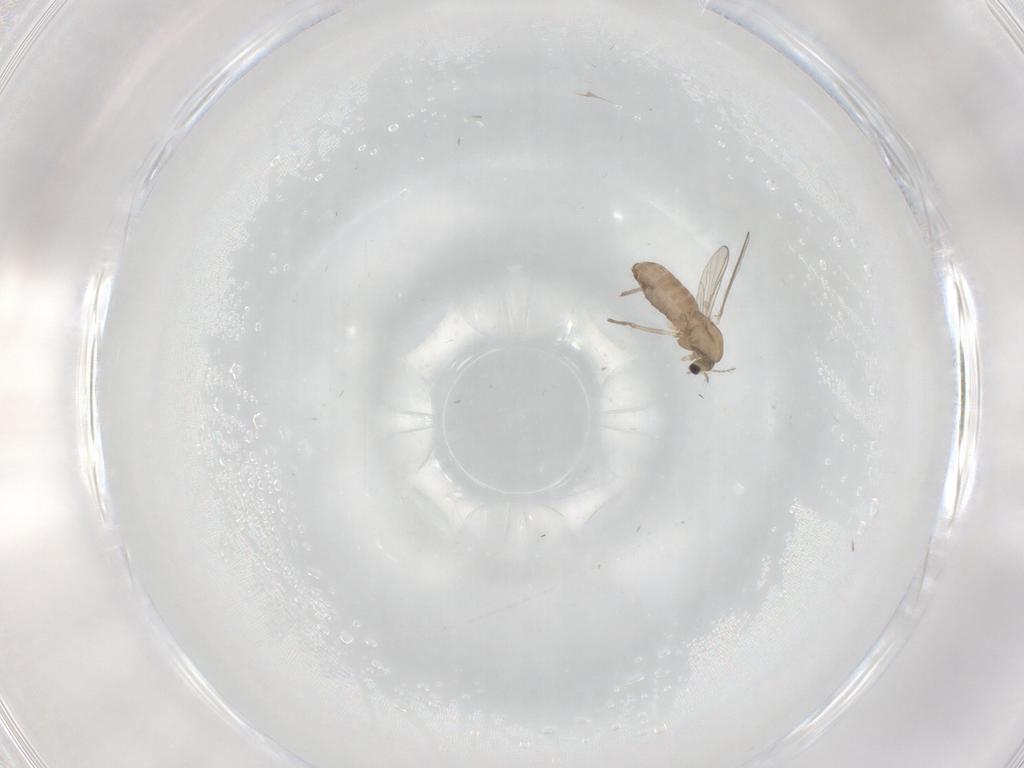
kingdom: Animalia
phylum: Arthropoda
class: Insecta
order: Diptera
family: Chironomidae
